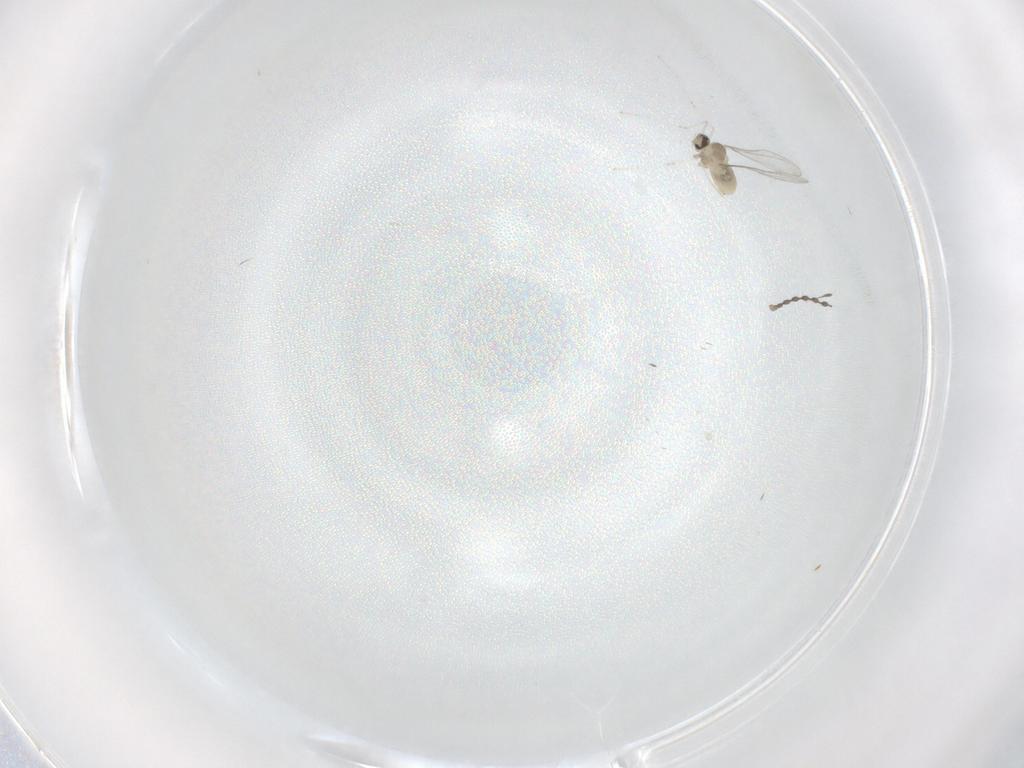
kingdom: Animalia
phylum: Arthropoda
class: Insecta
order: Diptera
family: Cecidomyiidae
